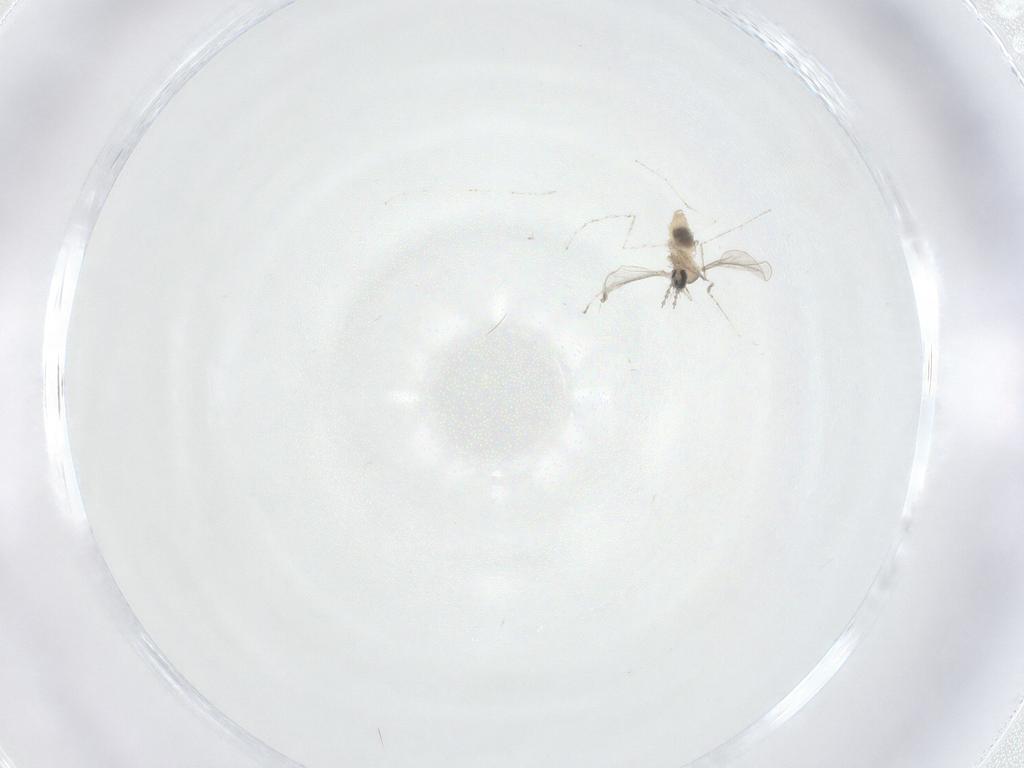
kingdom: Animalia
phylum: Arthropoda
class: Insecta
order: Diptera
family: Cecidomyiidae
